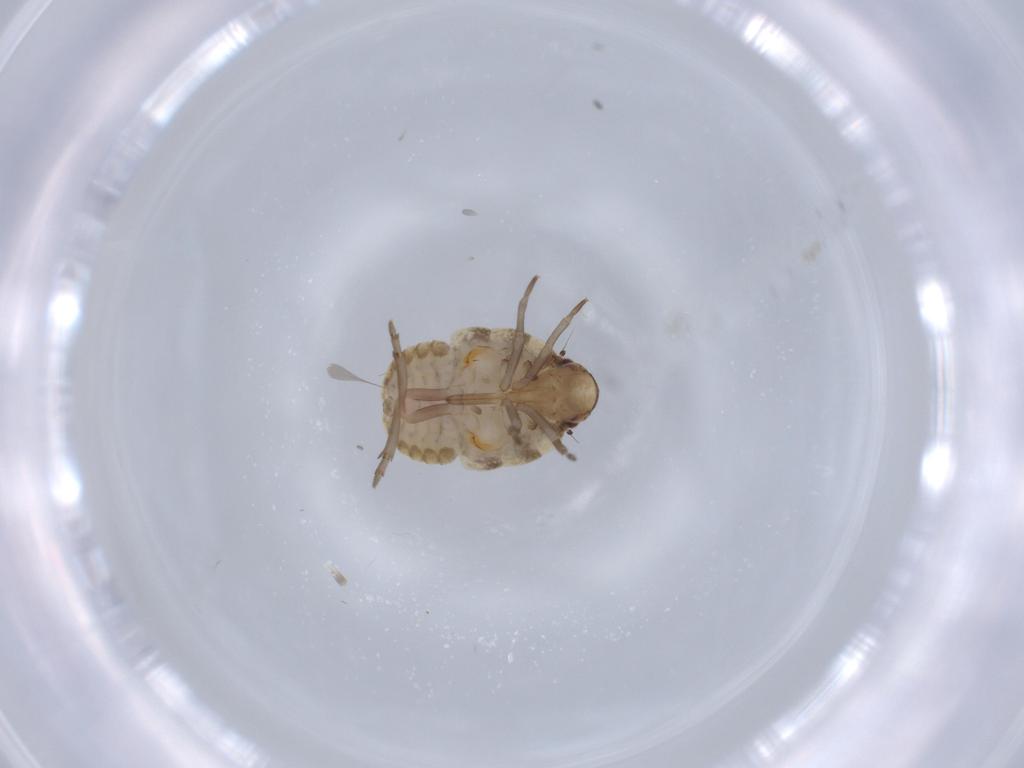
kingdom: Animalia
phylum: Arthropoda
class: Insecta
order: Hemiptera
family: Flatidae
